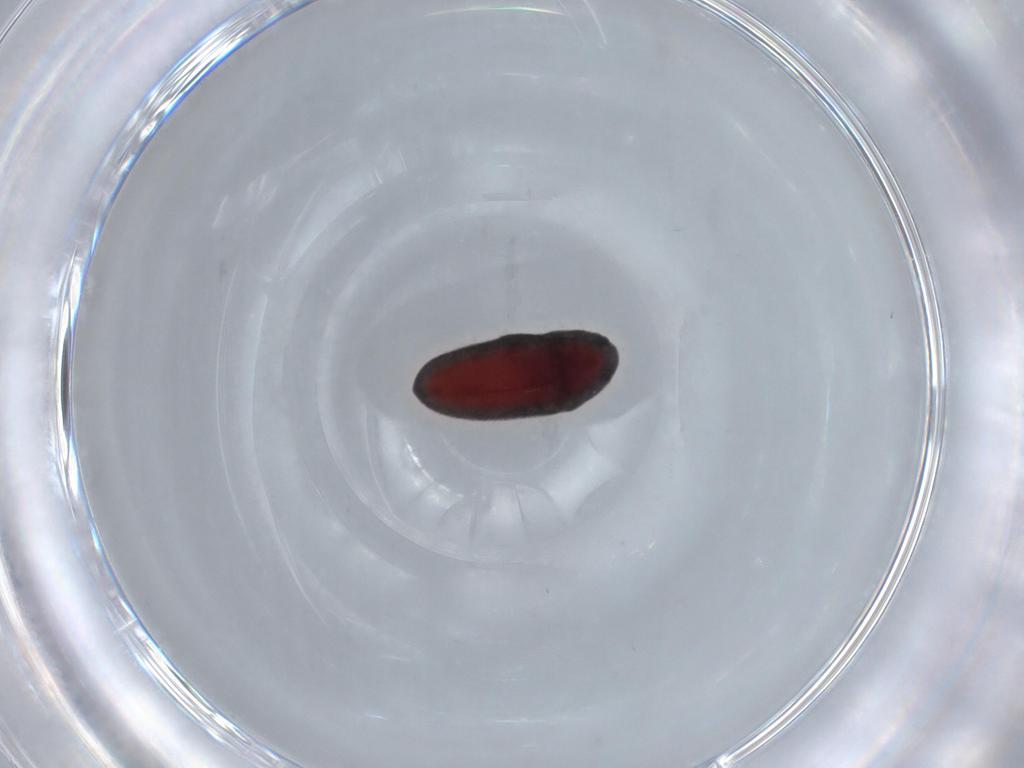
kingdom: Animalia
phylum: Arthropoda
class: Insecta
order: Coleoptera
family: Throscidae
